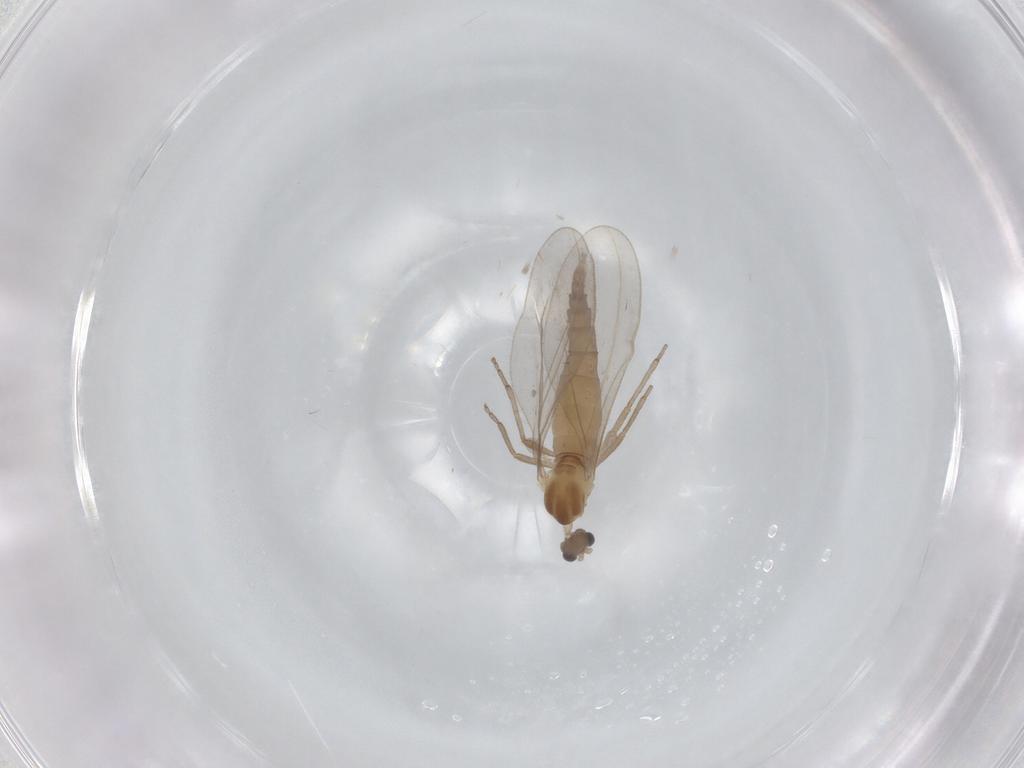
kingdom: Animalia
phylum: Arthropoda
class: Insecta
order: Diptera
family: Cecidomyiidae
